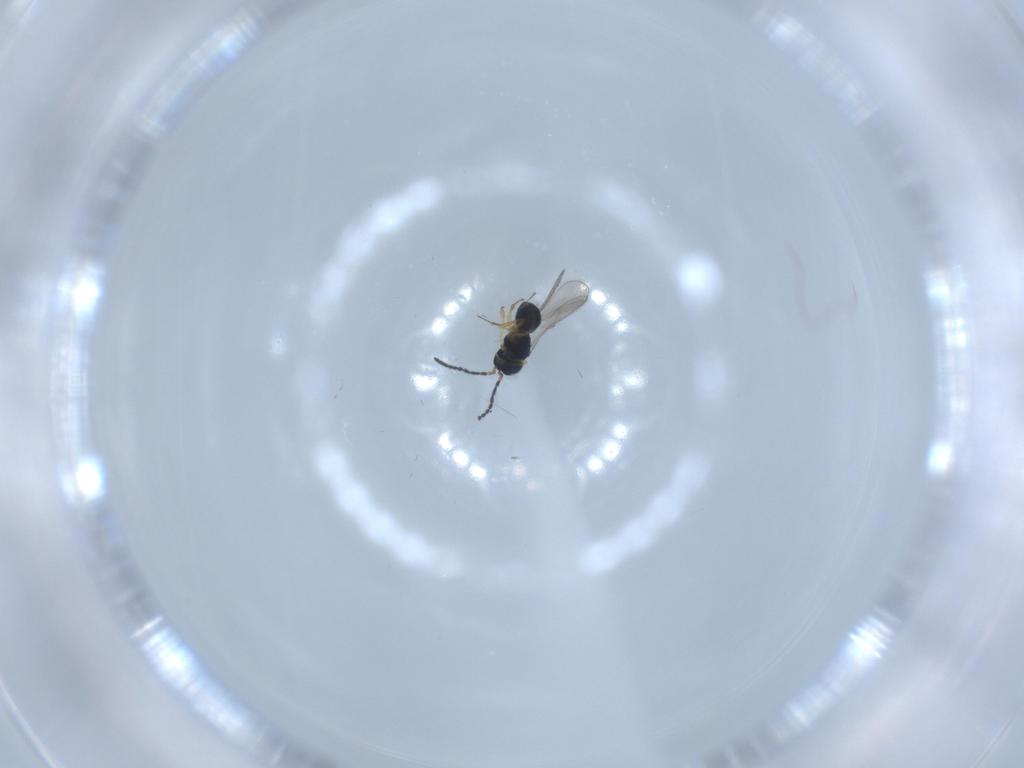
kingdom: Animalia
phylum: Arthropoda
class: Insecta
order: Hymenoptera
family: Scelionidae
